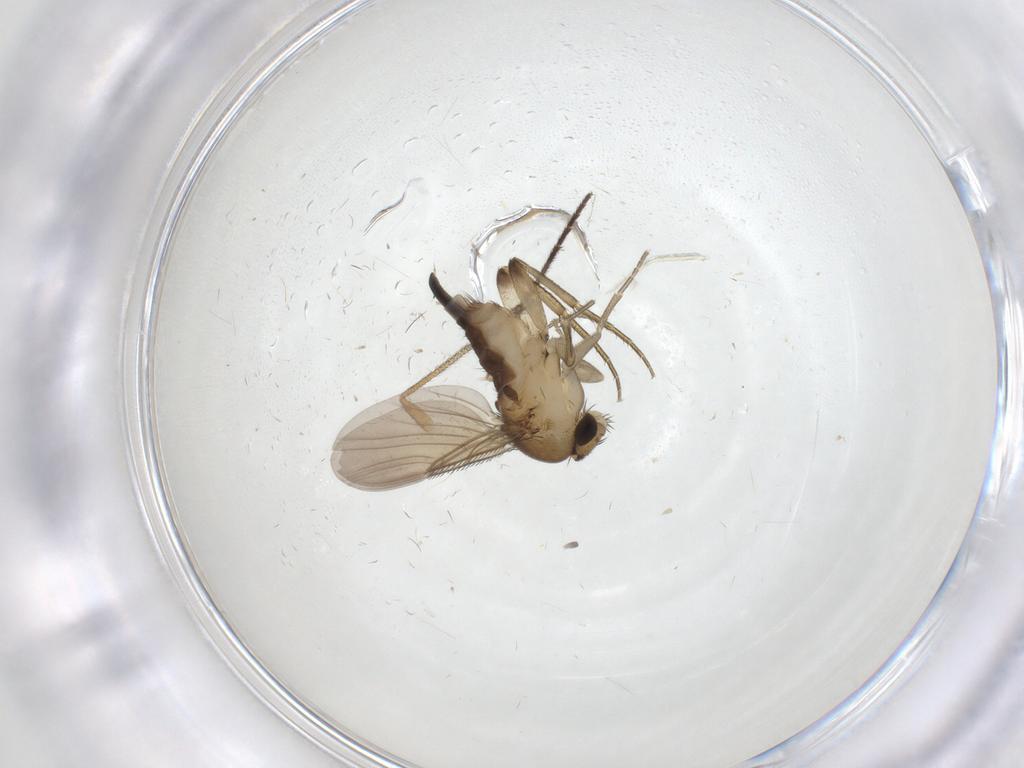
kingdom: Animalia
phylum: Arthropoda
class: Insecta
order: Diptera
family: Phoridae
